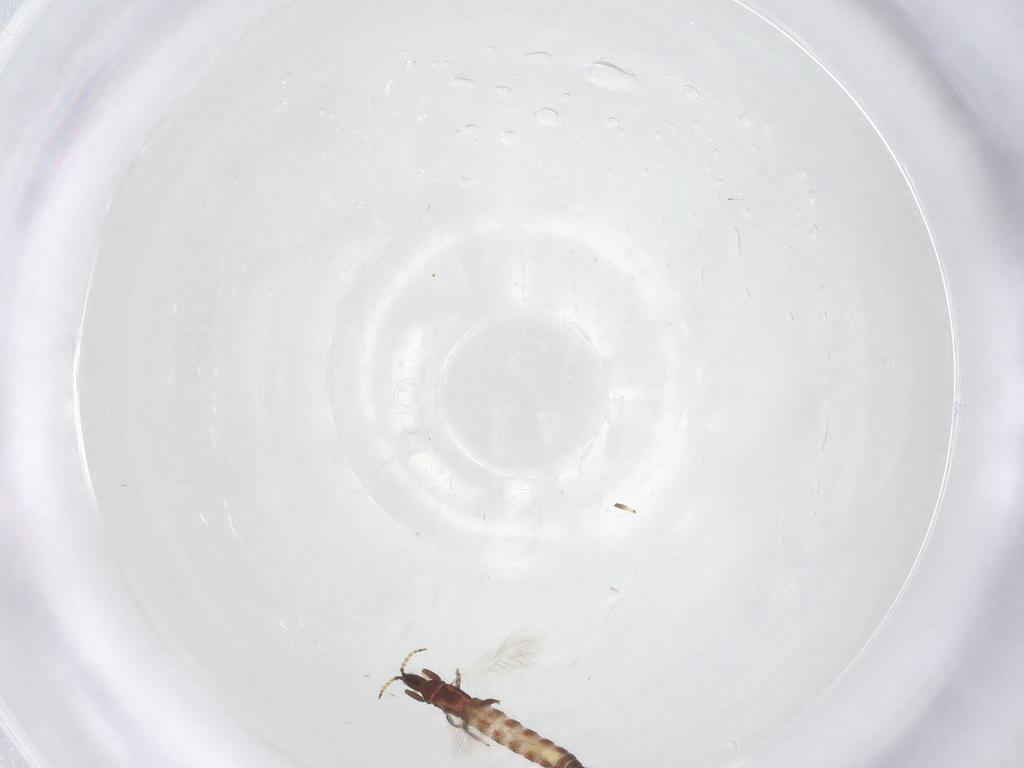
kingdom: Animalia
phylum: Arthropoda
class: Insecta
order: Thysanoptera
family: Phlaeothripidae
